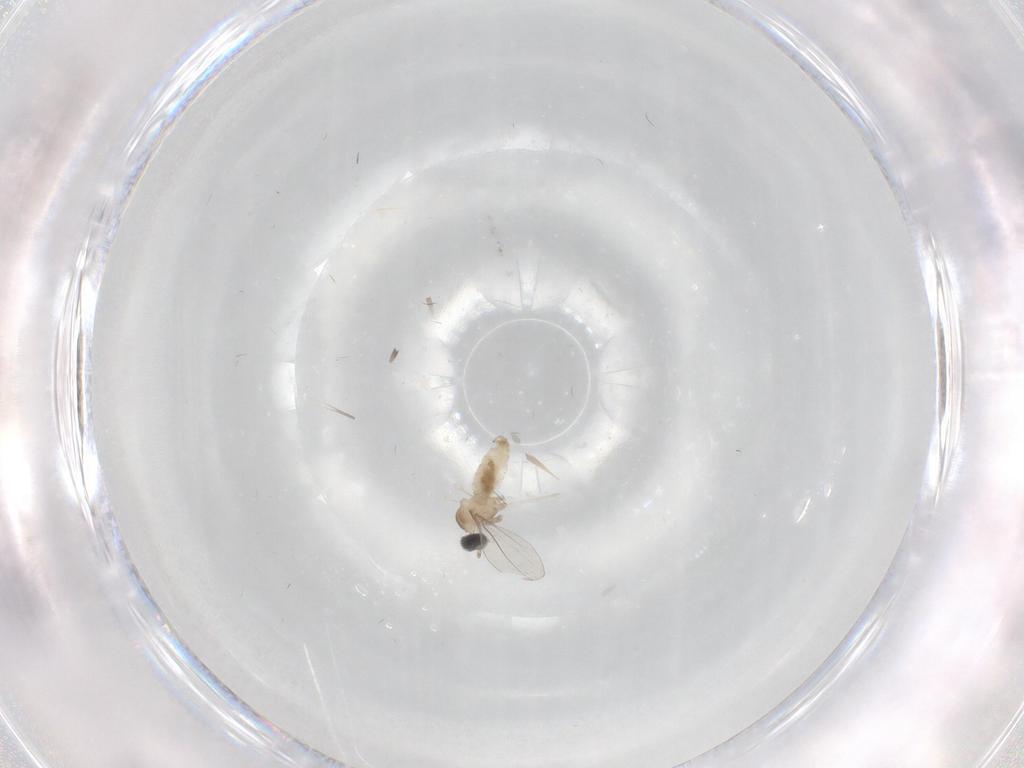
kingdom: Animalia
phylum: Arthropoda
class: Insecta
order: Diptera
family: Cecidomyiidae
